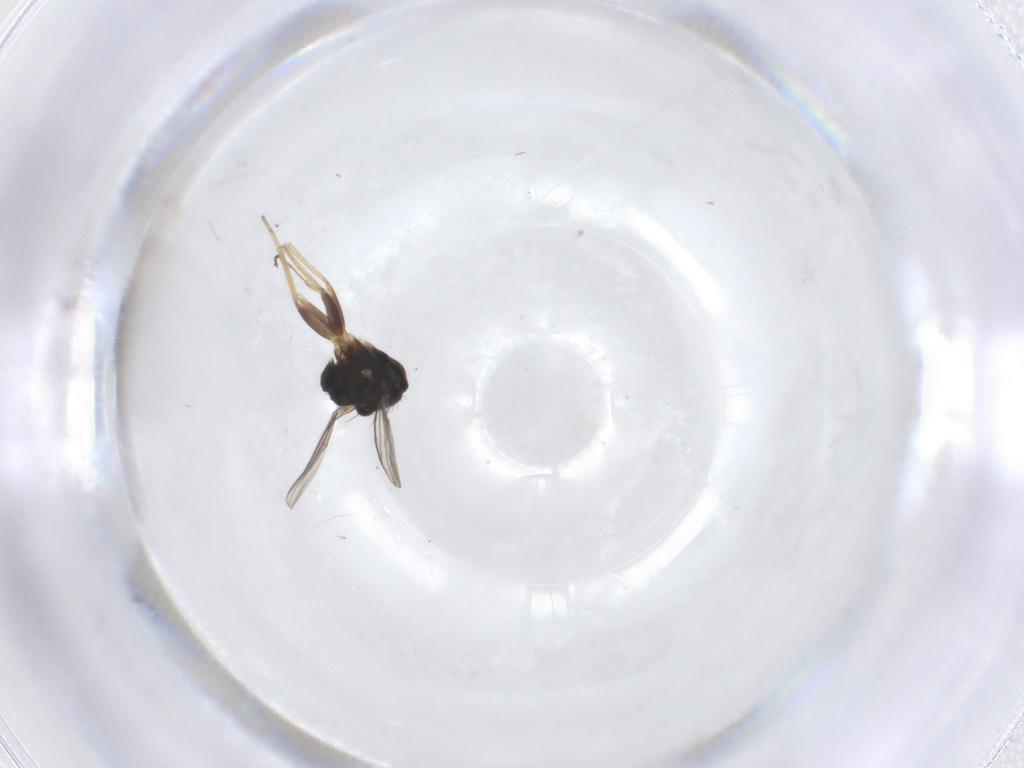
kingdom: Animalia
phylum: Arthropoda
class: Insecta
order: Diptera
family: Dolichopodidae
